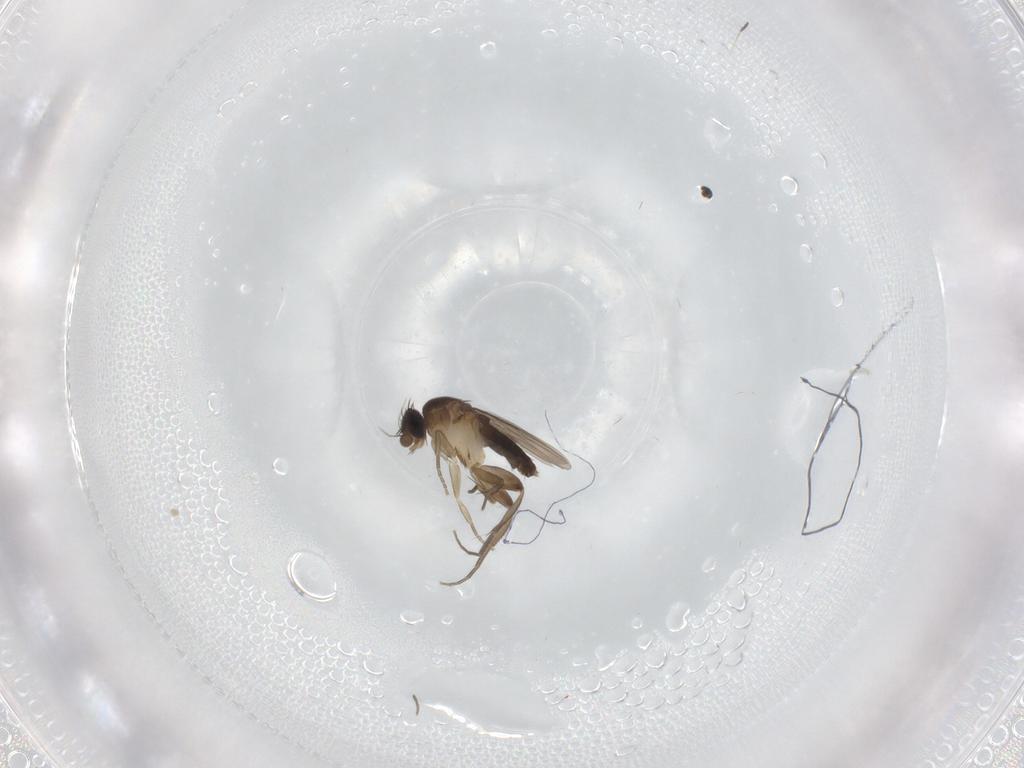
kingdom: Animalia
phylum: Arthropoda
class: Insecta
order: Diptera
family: Phoridae
